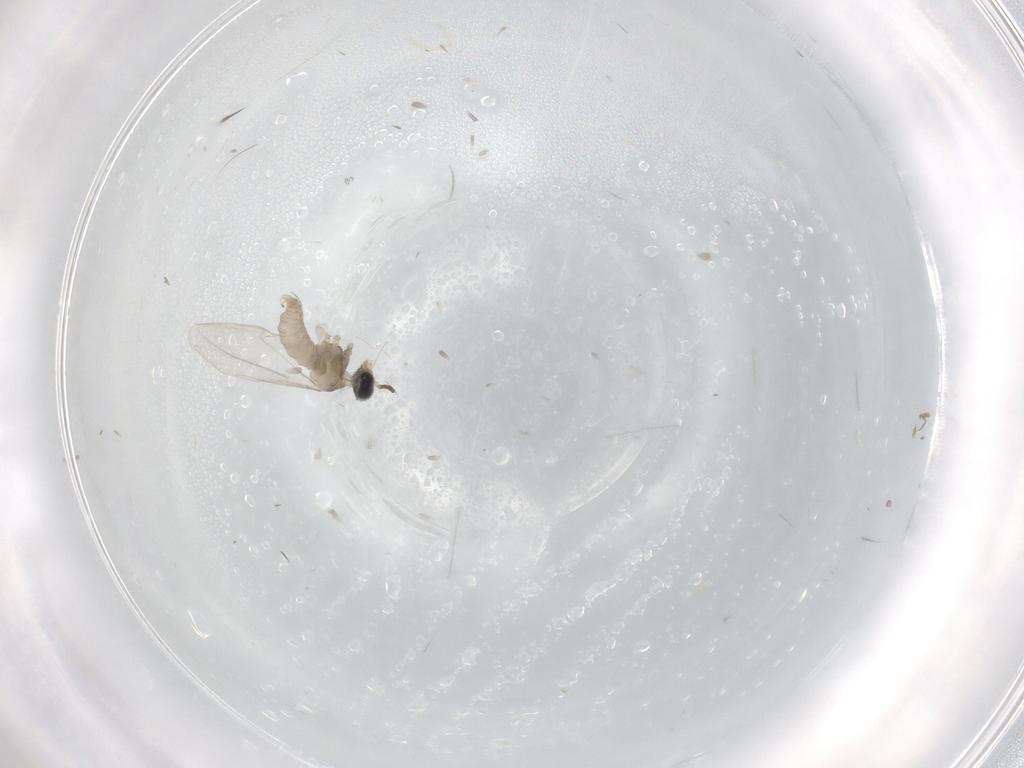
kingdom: Animalia
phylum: Arthropoda
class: Insecta
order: Diptera
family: Cecidomyiidae
